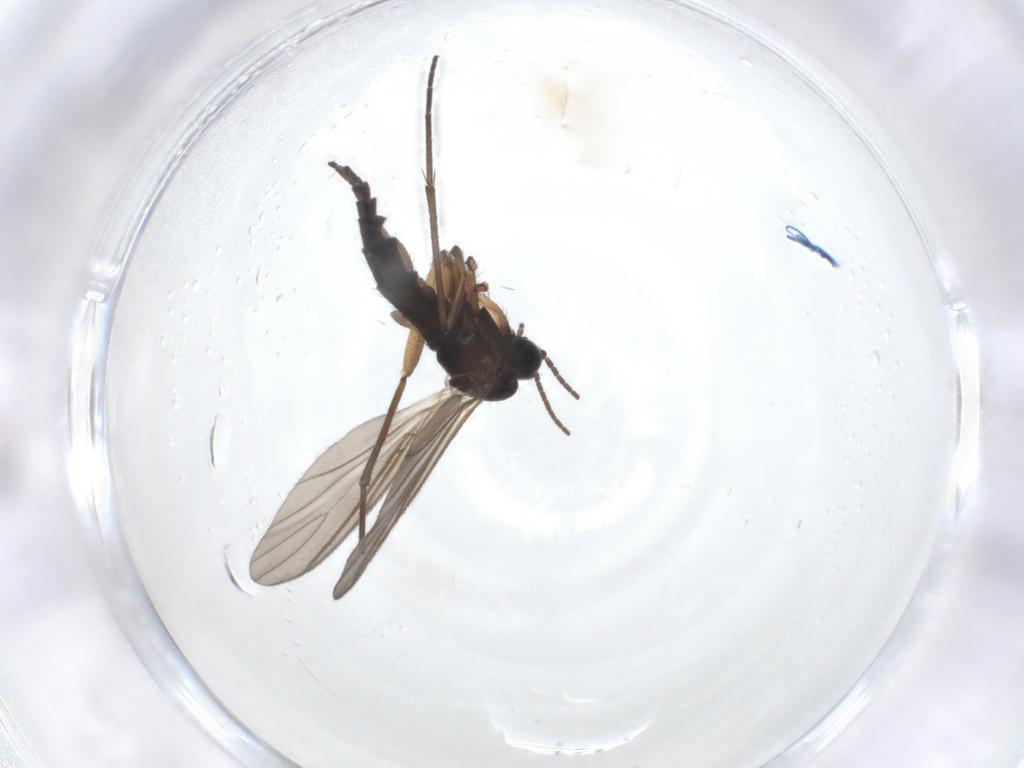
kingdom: Animalia
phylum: Arthropoda
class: Insecta
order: Diptera
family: Sciaridae
